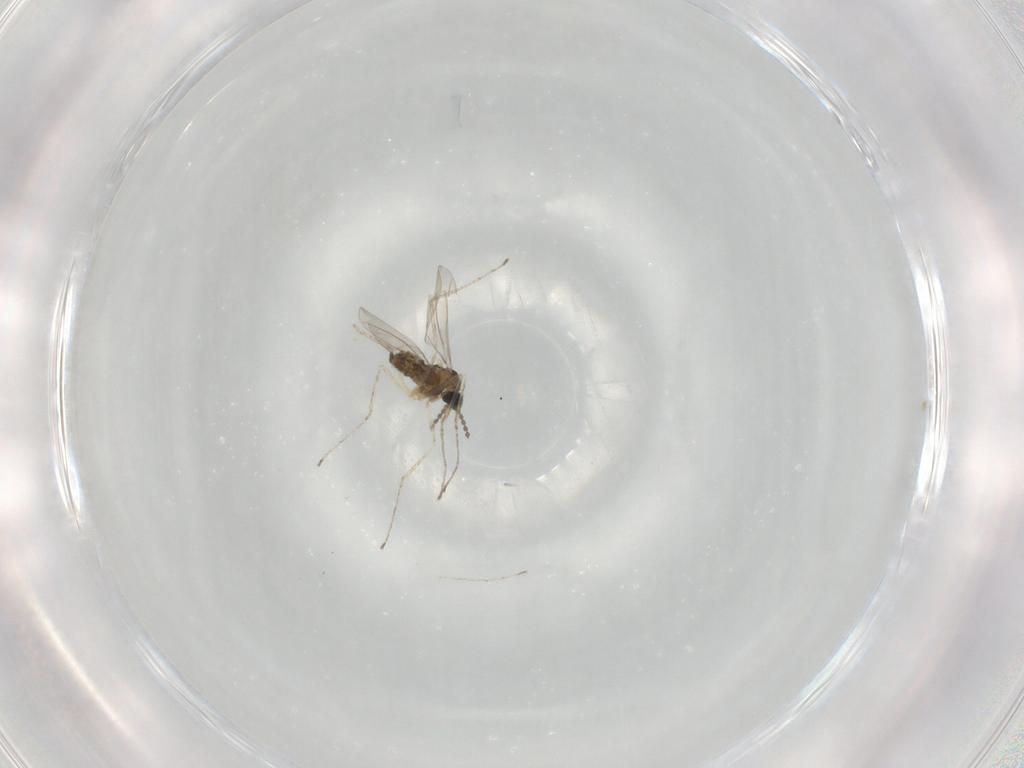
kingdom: Animalia
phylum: Arthropoda
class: Insecta
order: Diptera
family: Cecidomyiidae
